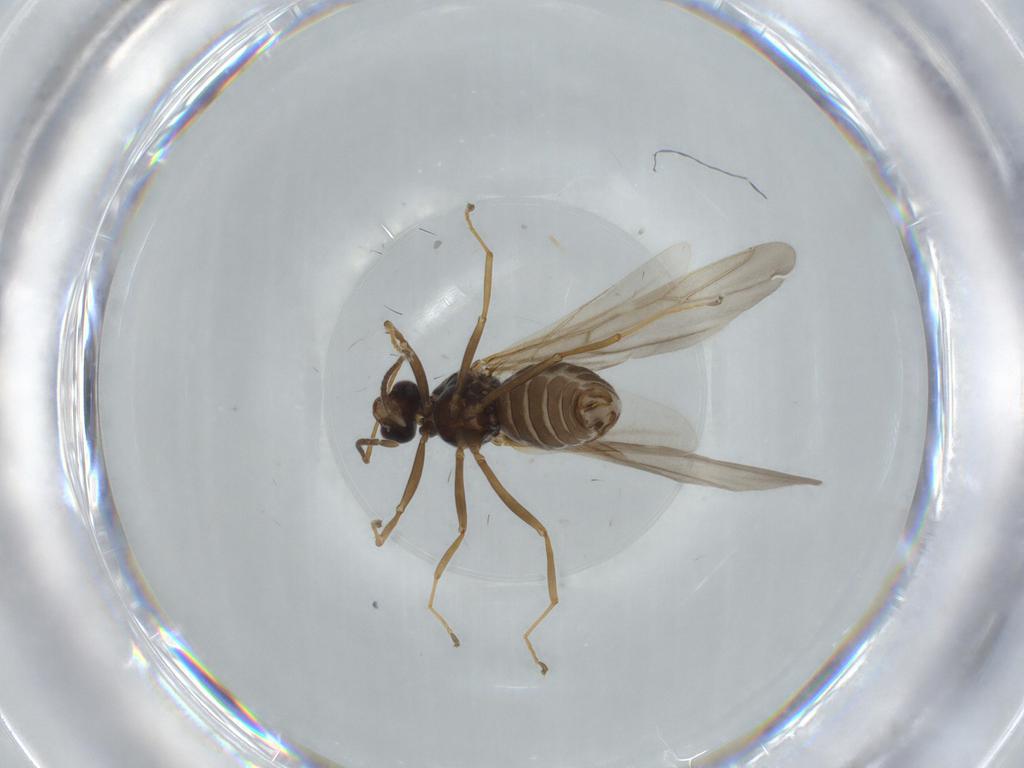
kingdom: Animalia
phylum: Arthropoda
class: Insecta
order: Hymenoptera
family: Formicidae
